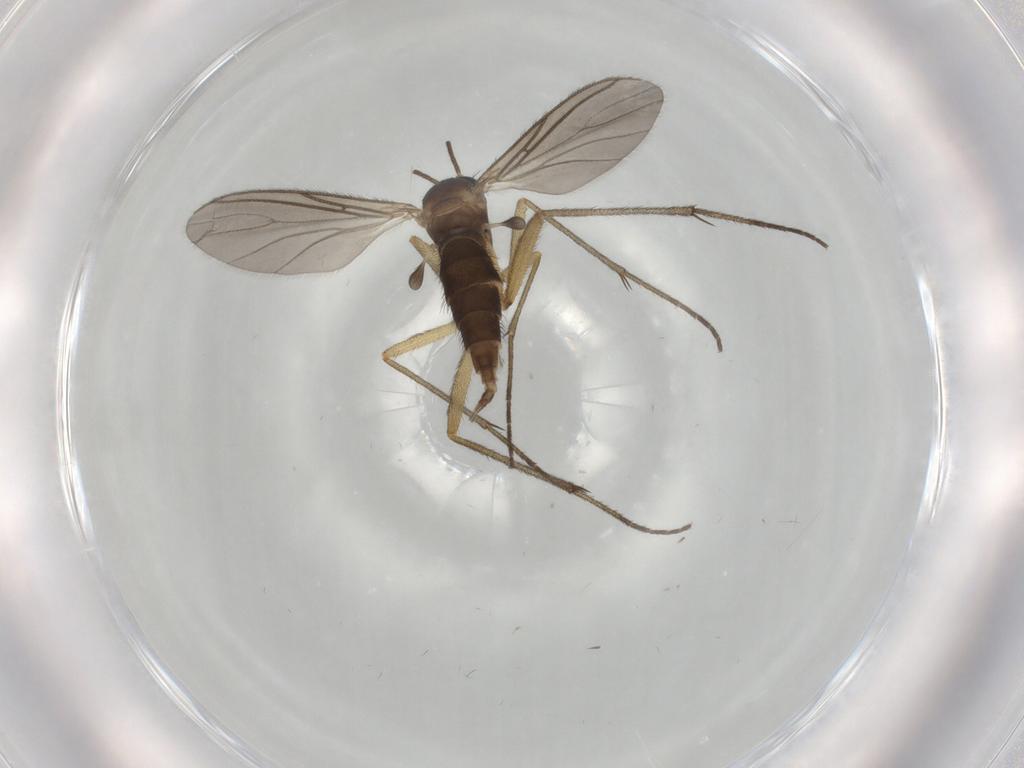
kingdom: Animalia
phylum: Arthropoda
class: Insecta
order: Diptera
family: Sciaridae
